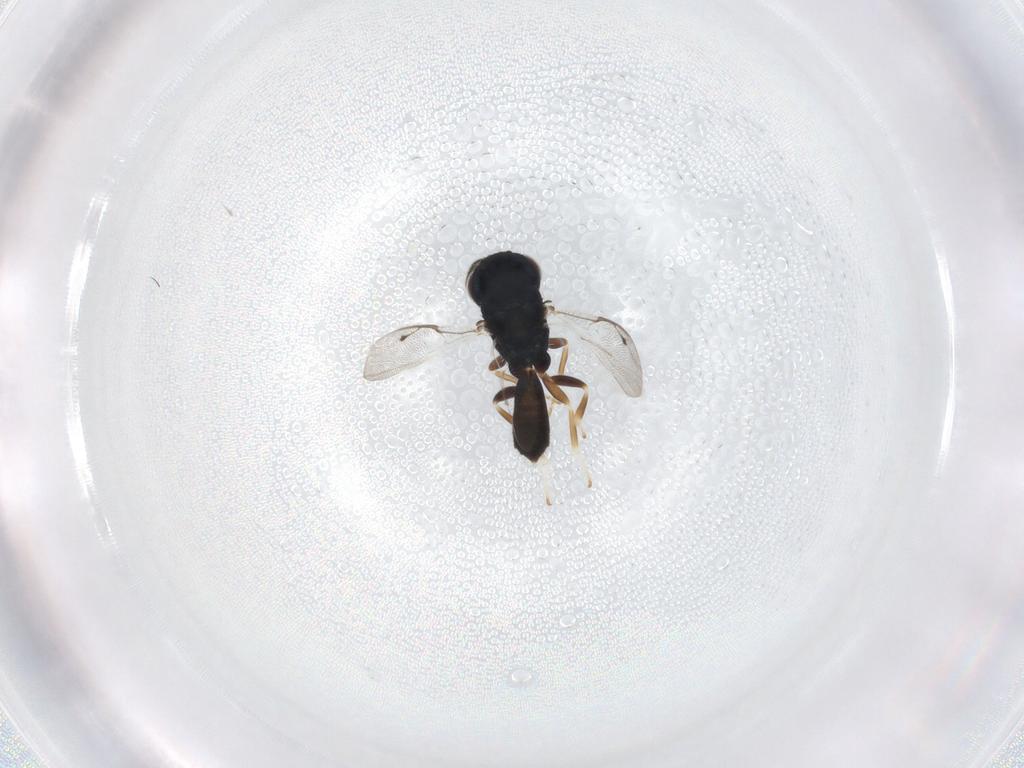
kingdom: Animalia
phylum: Arthropoda
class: Insecta
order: Hymenoptera
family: Pteromalidae
